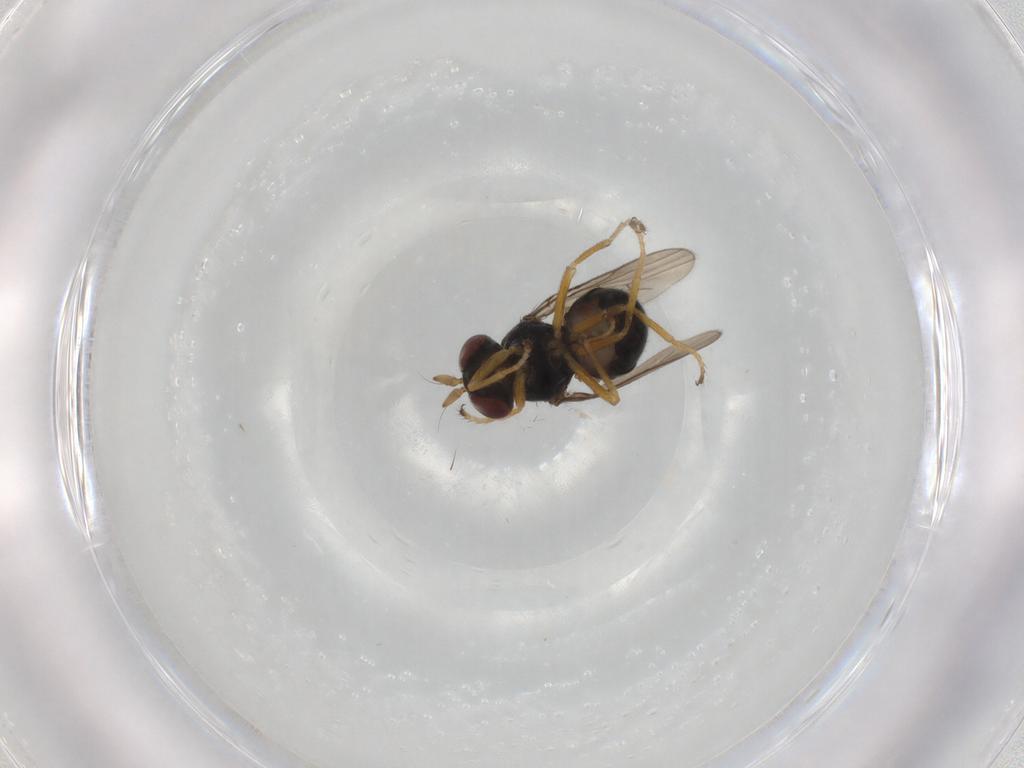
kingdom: Animalia
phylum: Arthropoda
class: Insecta
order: Diptera
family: Ephydridae
